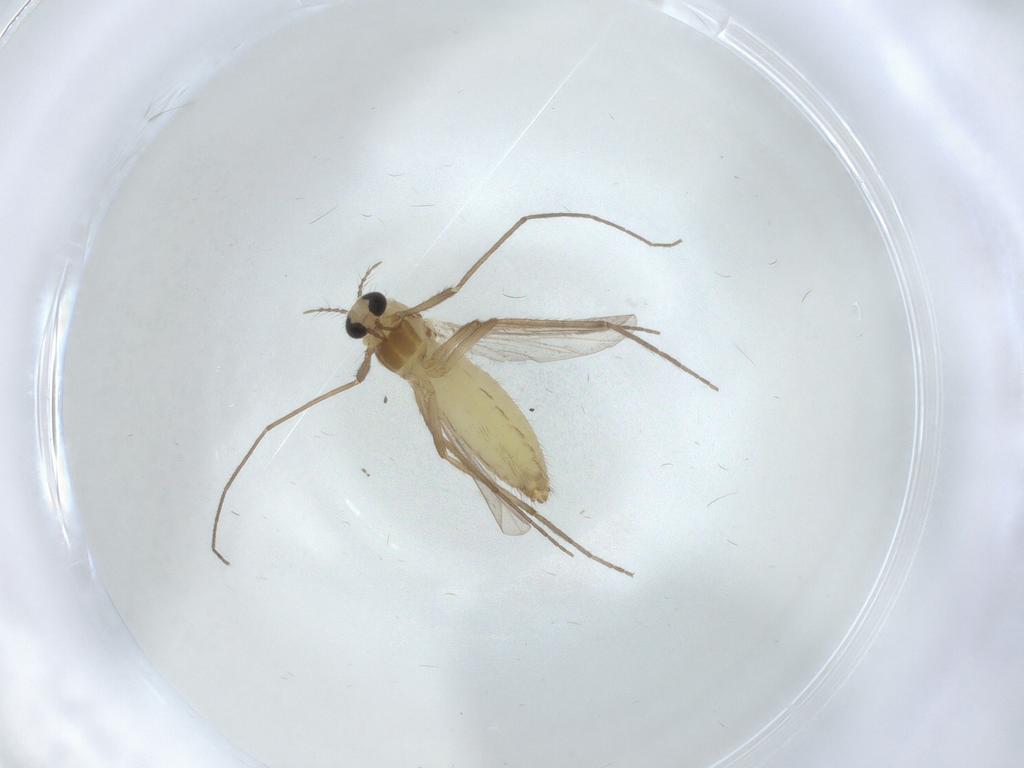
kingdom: Animalia
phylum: Arthropoda
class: Insecta
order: Diptera
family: Chironomidae
